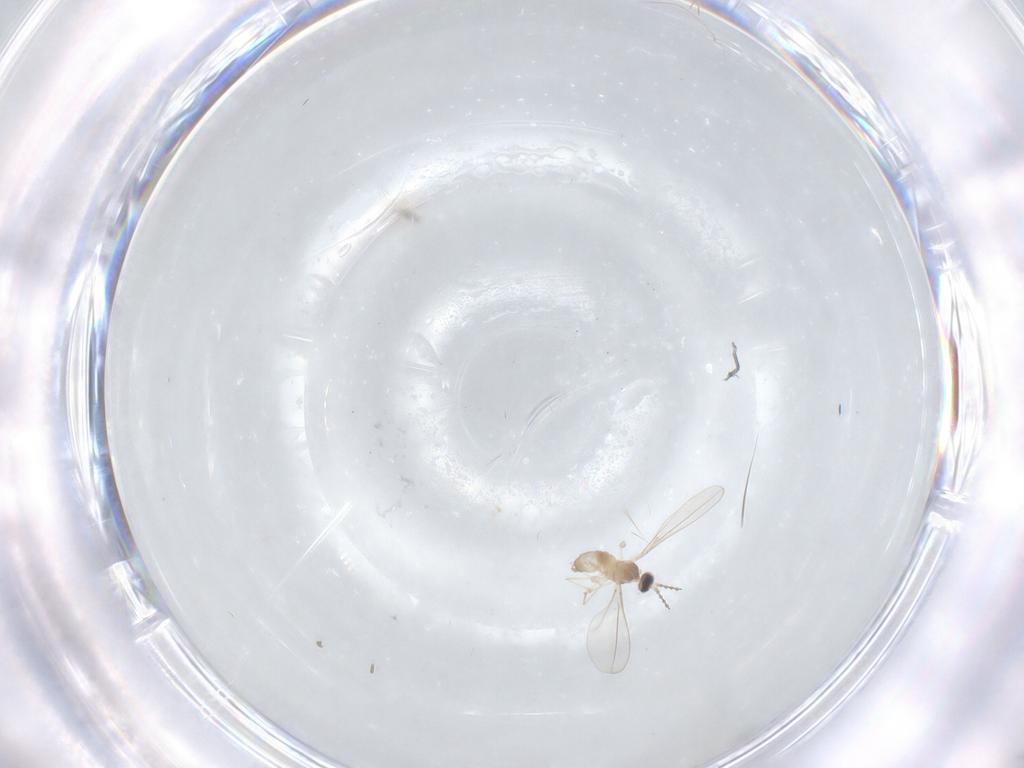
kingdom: Animalia
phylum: Arthropoda
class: Insecta
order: Diptera
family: Cecidomyiidae
